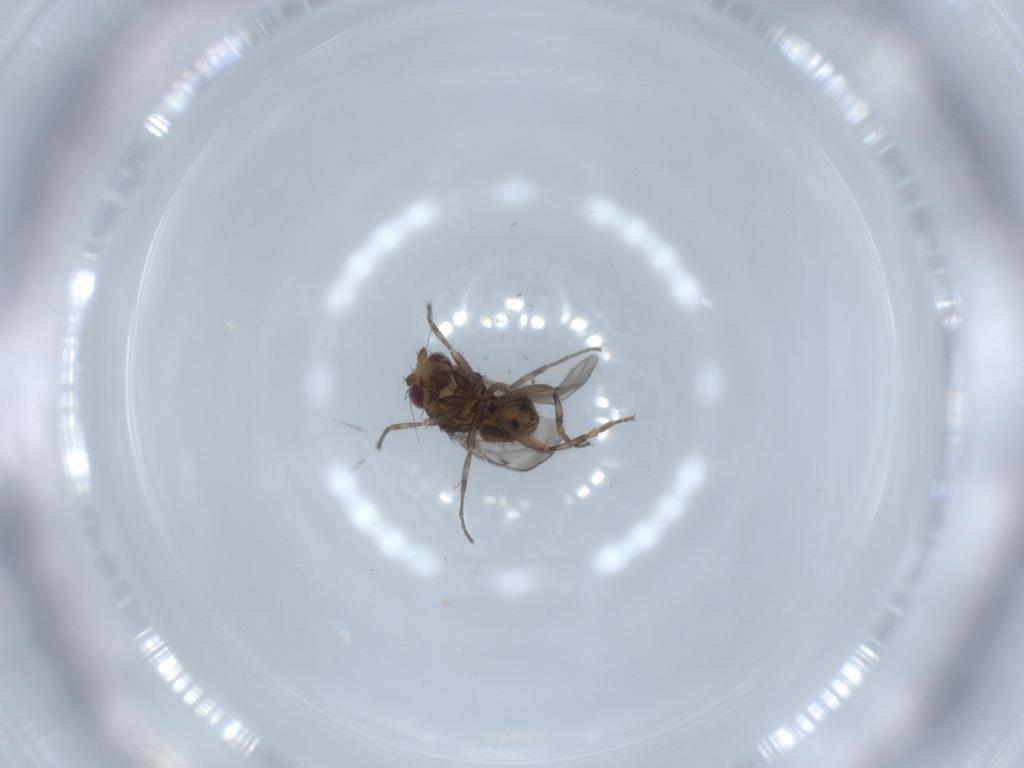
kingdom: Animalia
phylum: Arthropoda
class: Insecta
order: Diptera
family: Sphaeroceridae
